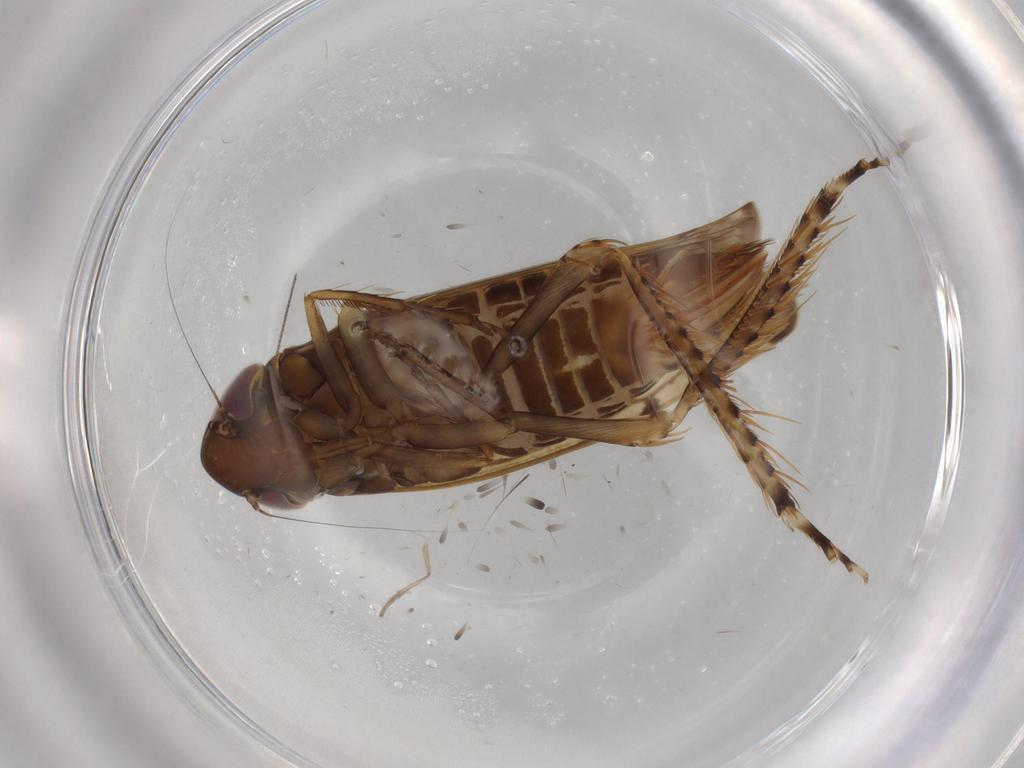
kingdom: Animalia
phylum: Arthropoda
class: Insecta
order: Hemiptera
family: Cicadellidae
